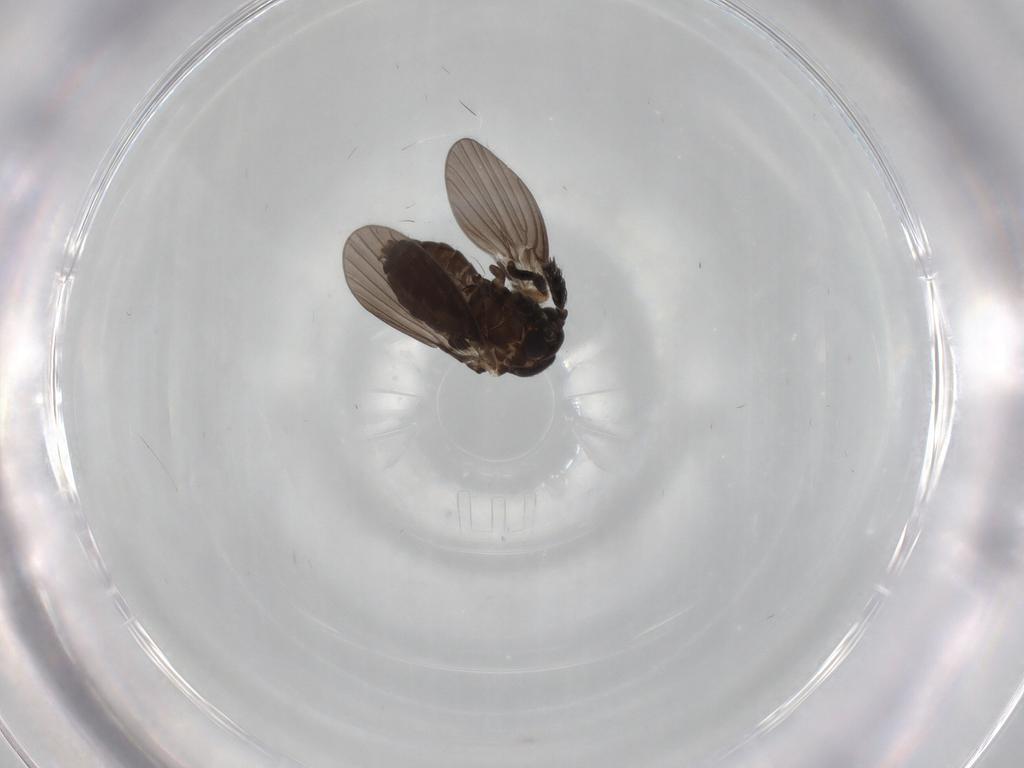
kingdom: Animalia
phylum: Arthropoda
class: Insecta
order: Diptera
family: Psychodidae
